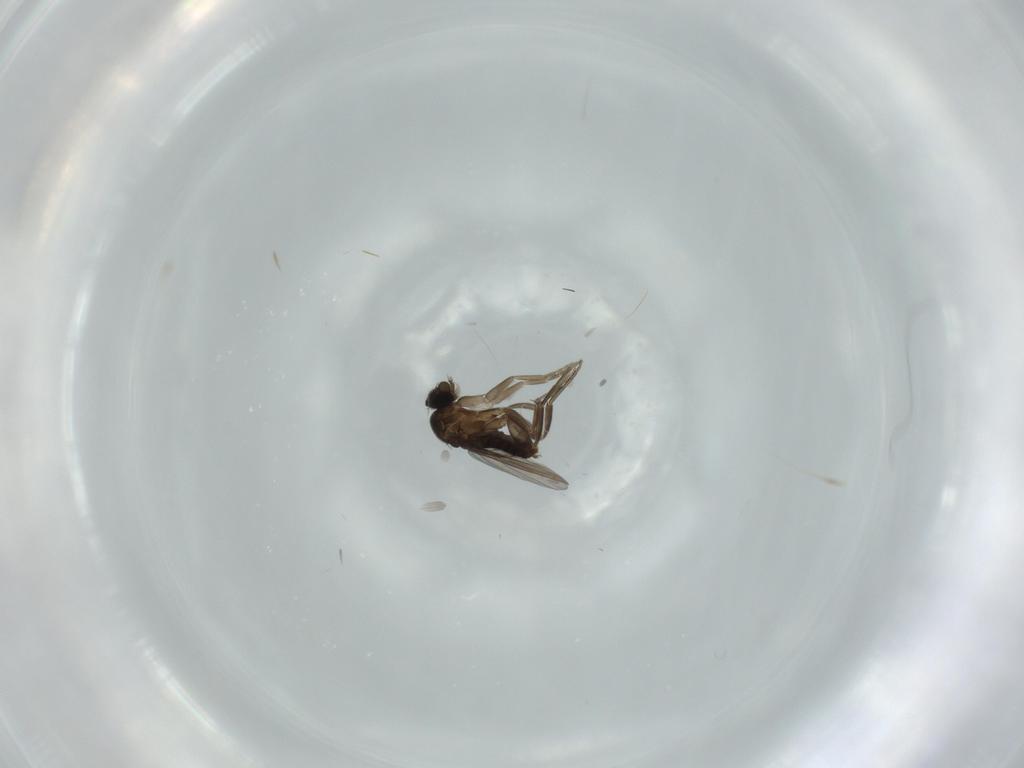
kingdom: Animalia
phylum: Arthropoda
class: Insecta
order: Diptera
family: Phoridae
